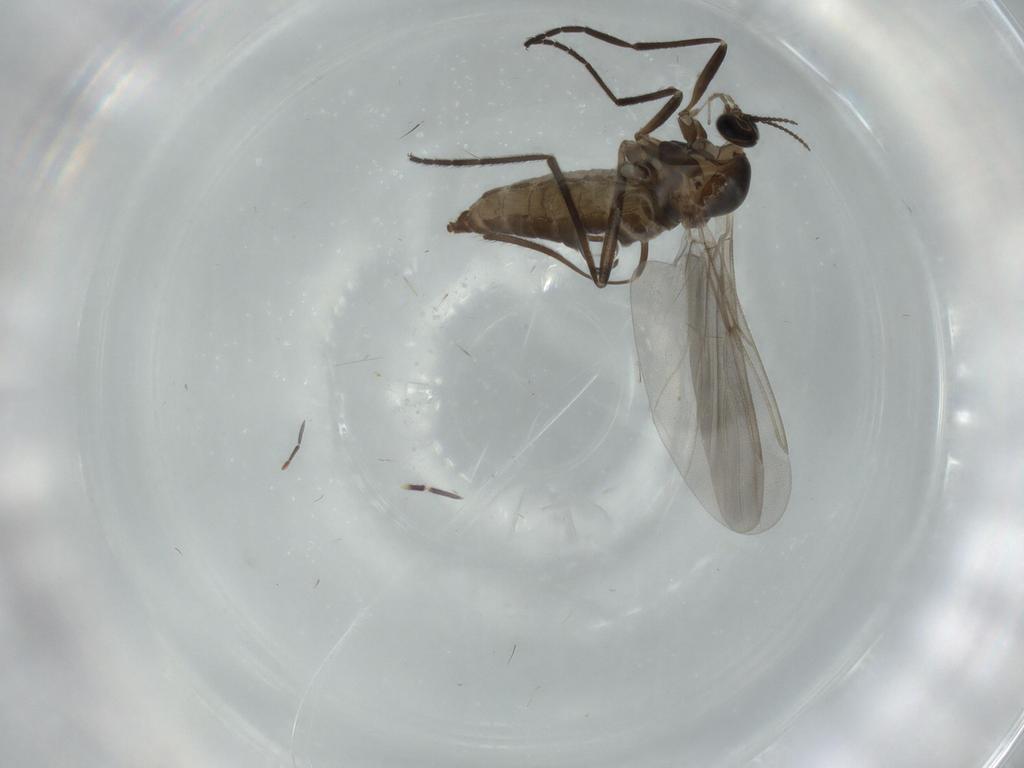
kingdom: Animalia
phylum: Arthropoda
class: Insecta
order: Diptera
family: Cecidomyiidae
